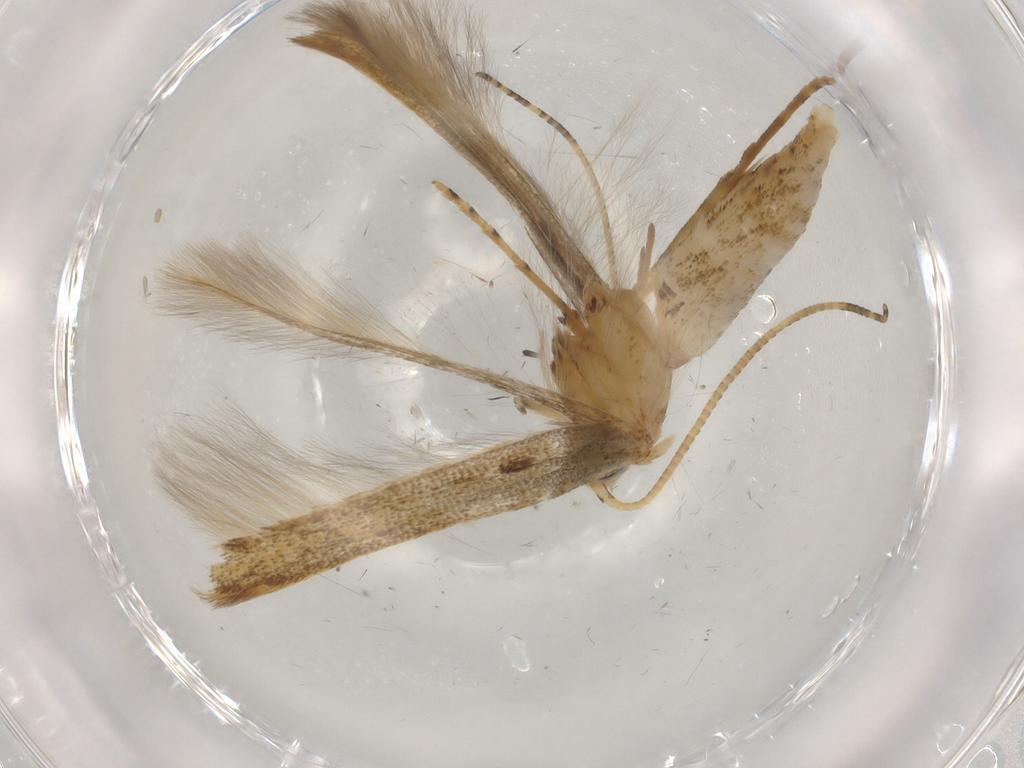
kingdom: Animalia
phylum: Arthropoda
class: Insecta
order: Lepidoptera
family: Batrachedridae
